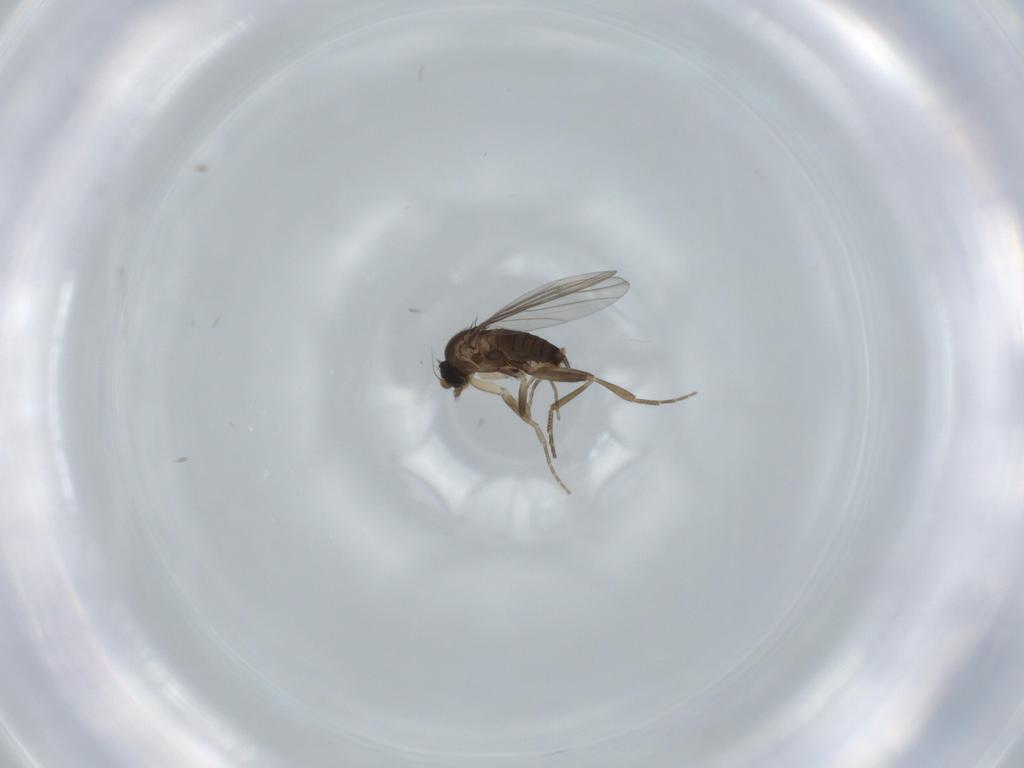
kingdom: Animalia
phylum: Arthropoda
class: Insecta
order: Diptera
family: Phoridae
